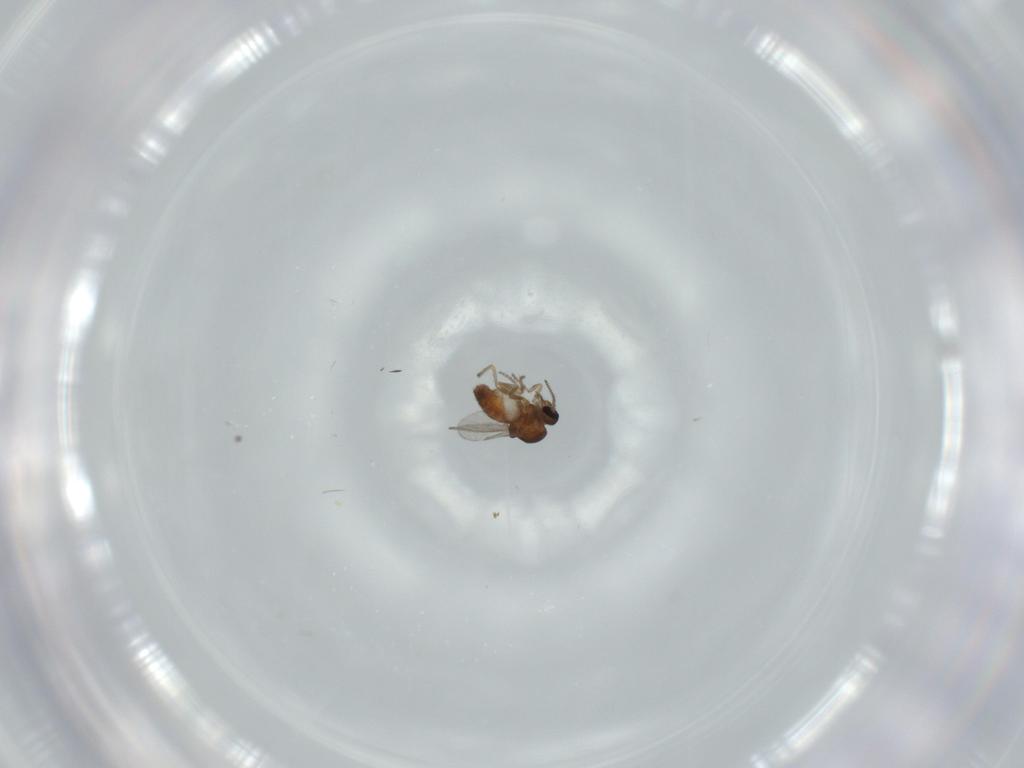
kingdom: Animalia
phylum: Arthropoda
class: Insecta
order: Diptera
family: Ceratopogonidae
